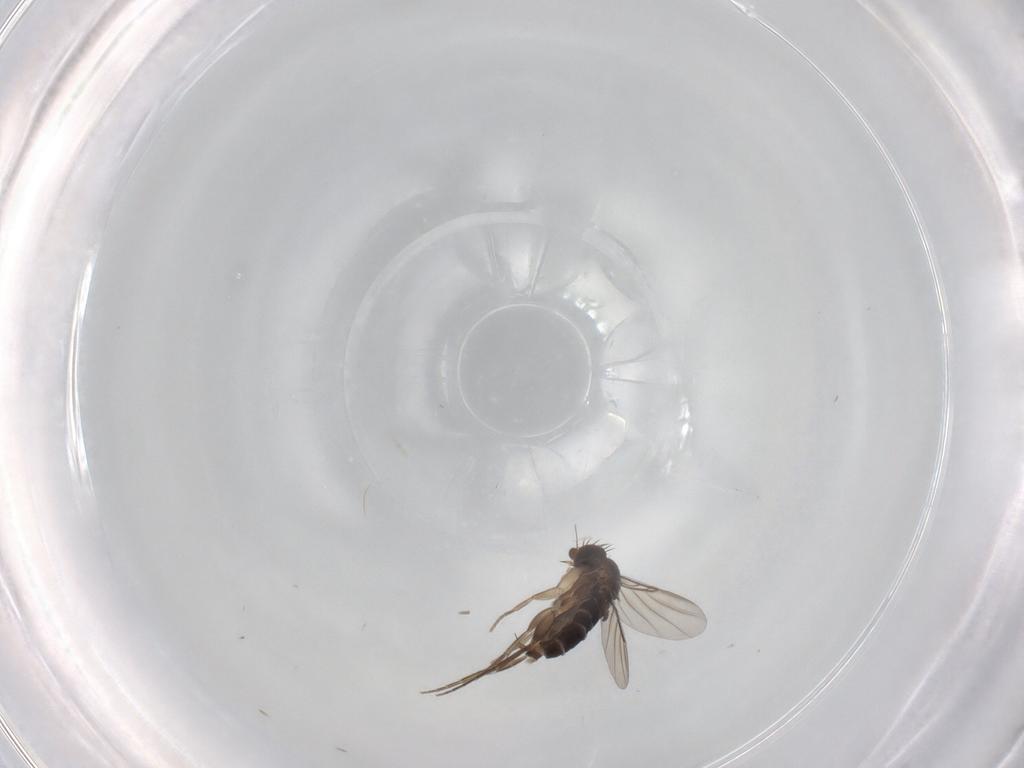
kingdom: Animalia
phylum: Arthropoda
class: Insecta
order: Diptera
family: Phoridae
